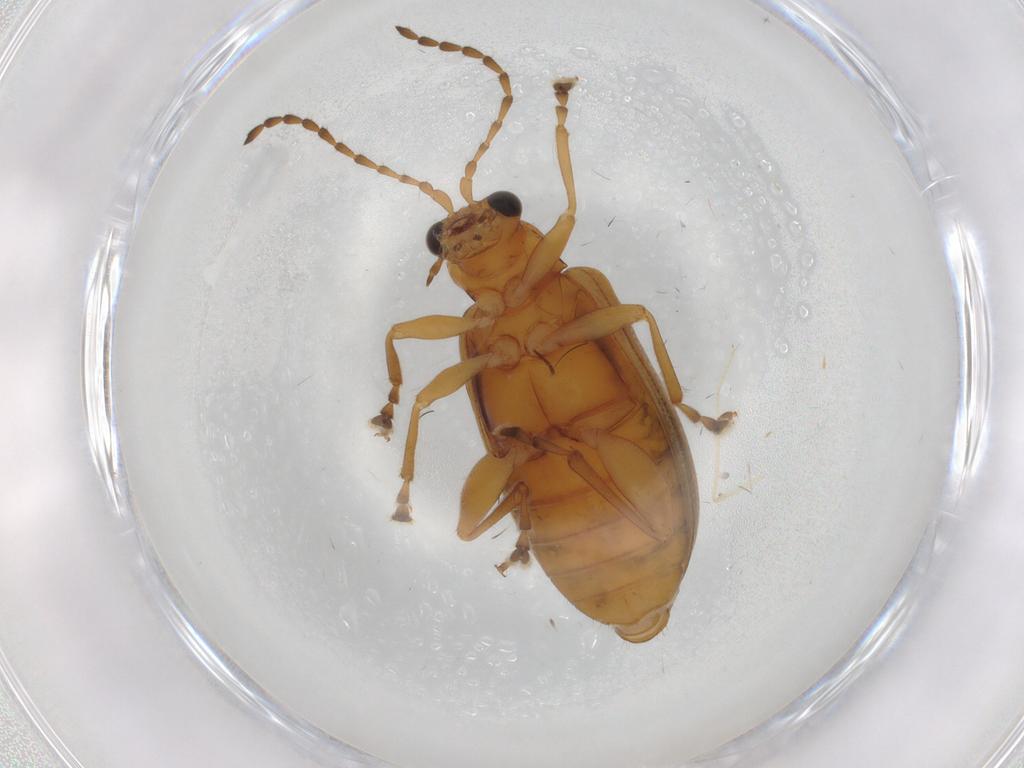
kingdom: Animalia
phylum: Arthropoda
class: Insecta
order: Coleoptera
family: Chrysomelidae
